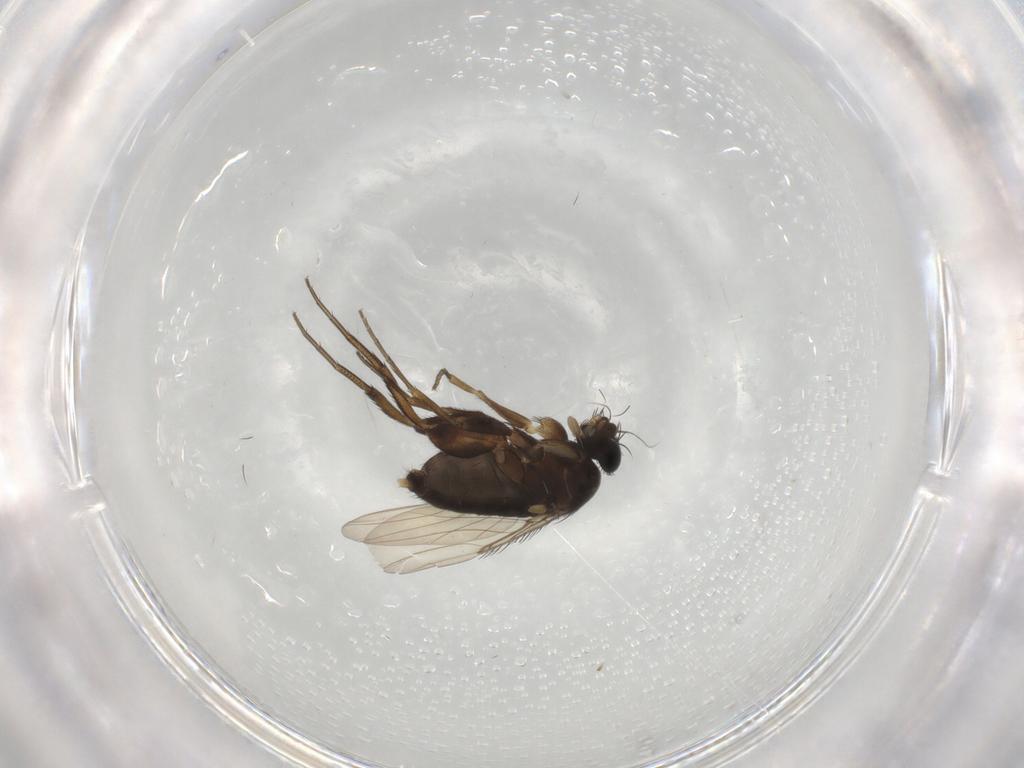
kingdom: Animalia
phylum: Arthropoda
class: Insecta
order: Diptera
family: Phoridae
